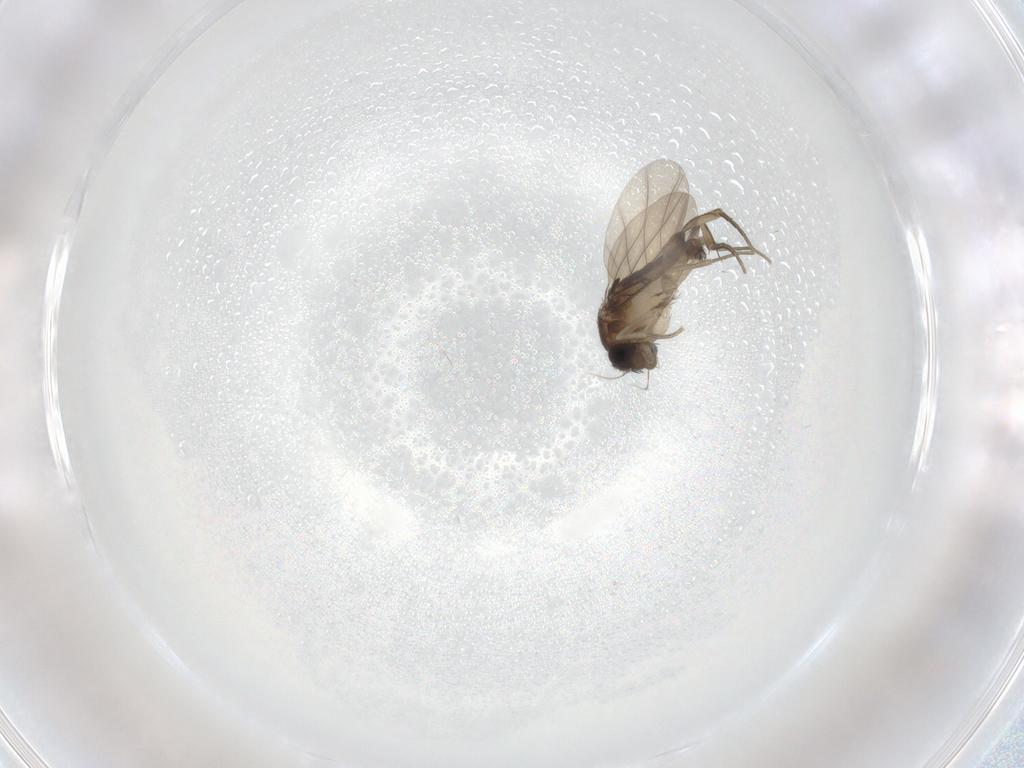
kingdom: Animalia
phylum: Arthropoda
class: Insecta
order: Diptera
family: Phoridae
